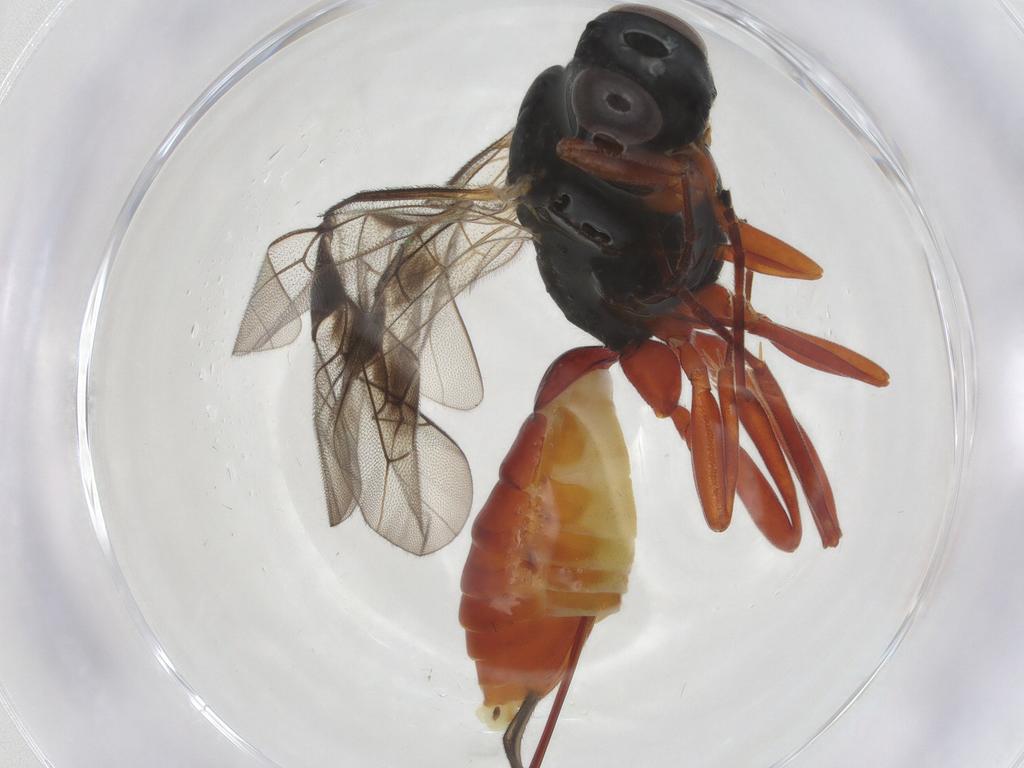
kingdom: Animalia
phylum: Arthropoda
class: Insecta
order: Hymenoptera
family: Ichneumonidae
